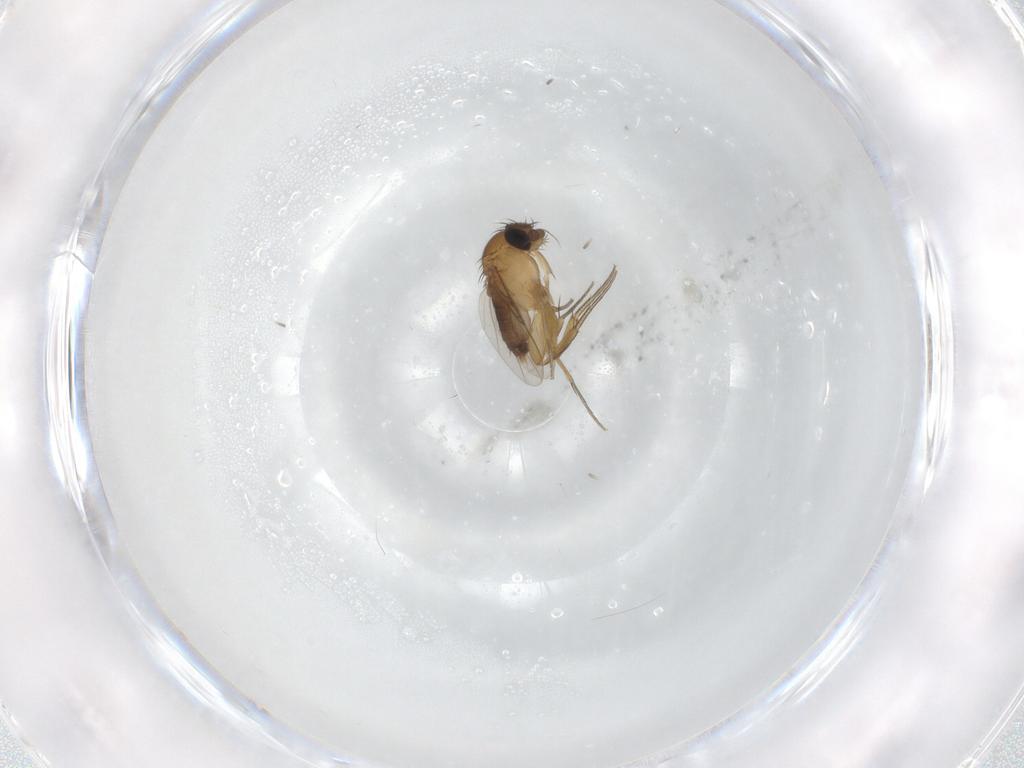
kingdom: Animalia
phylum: Arthropoda
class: Insecta
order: Diptera
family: Phoridae
